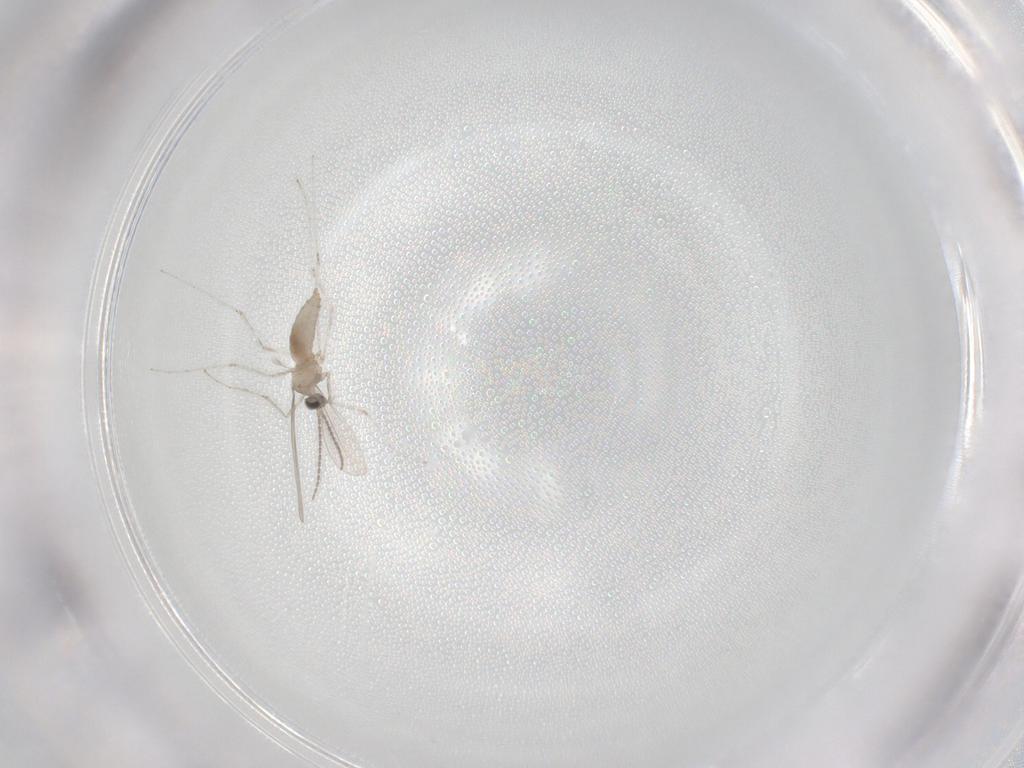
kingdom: Animalia
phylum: Arthropoda
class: Insecta
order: Diptera
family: Cecidomyiidae
